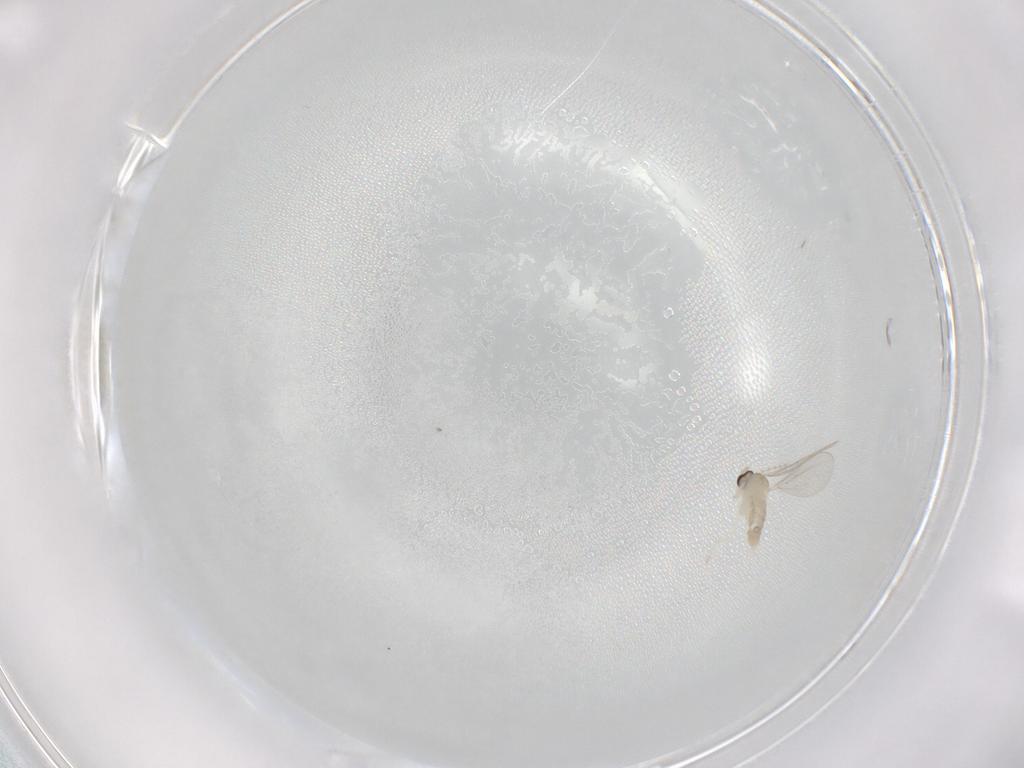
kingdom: Animalia
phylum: Arthropoda
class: Insecta
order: Diptera
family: Cecidomyiidae
